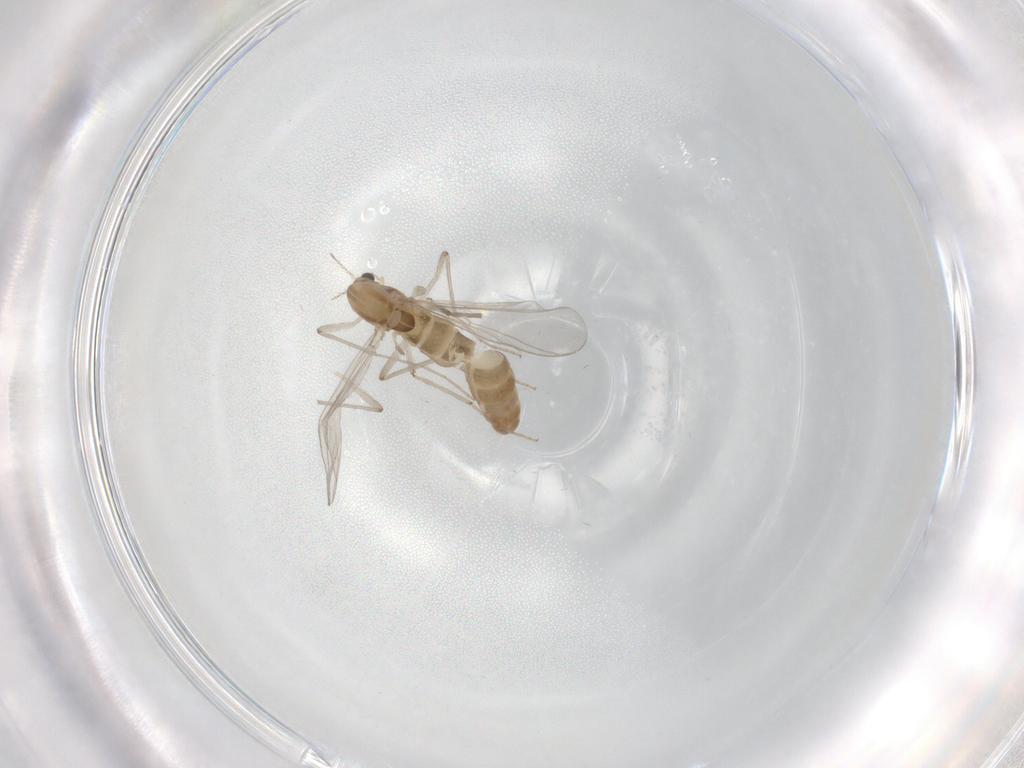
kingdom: Animalia
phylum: Arthropoda
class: Insecta
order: Diptera
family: Chironomidae
